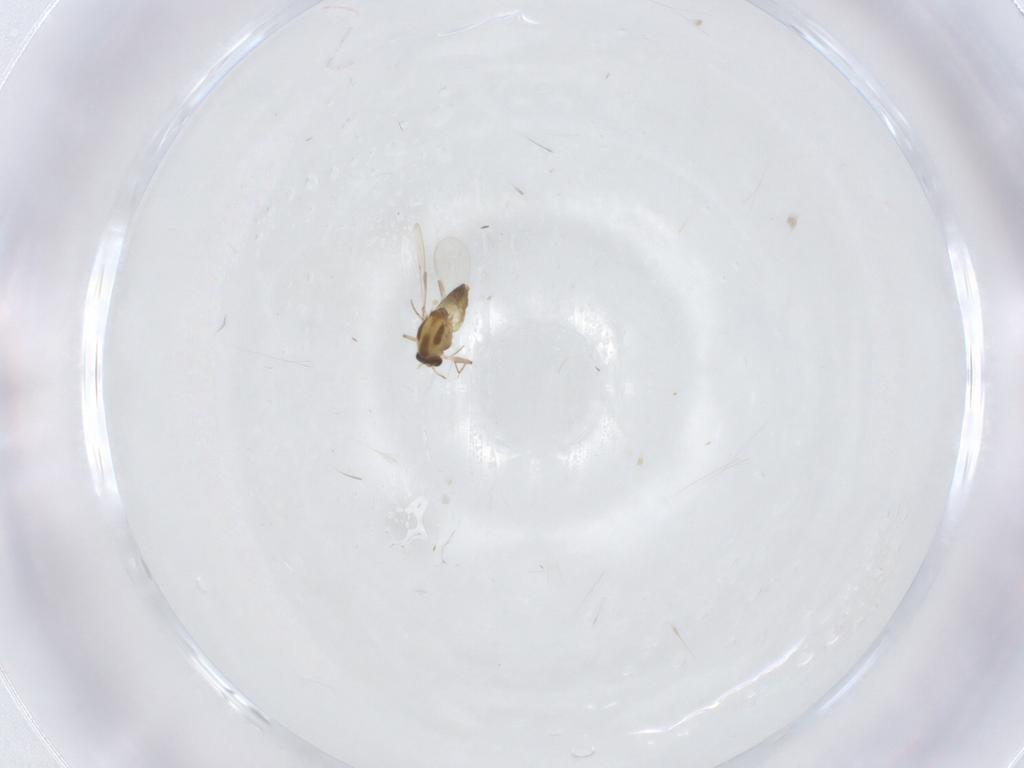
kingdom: Animalia
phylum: Arthropoda
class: Insecta
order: Diptera
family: Chironomidae
